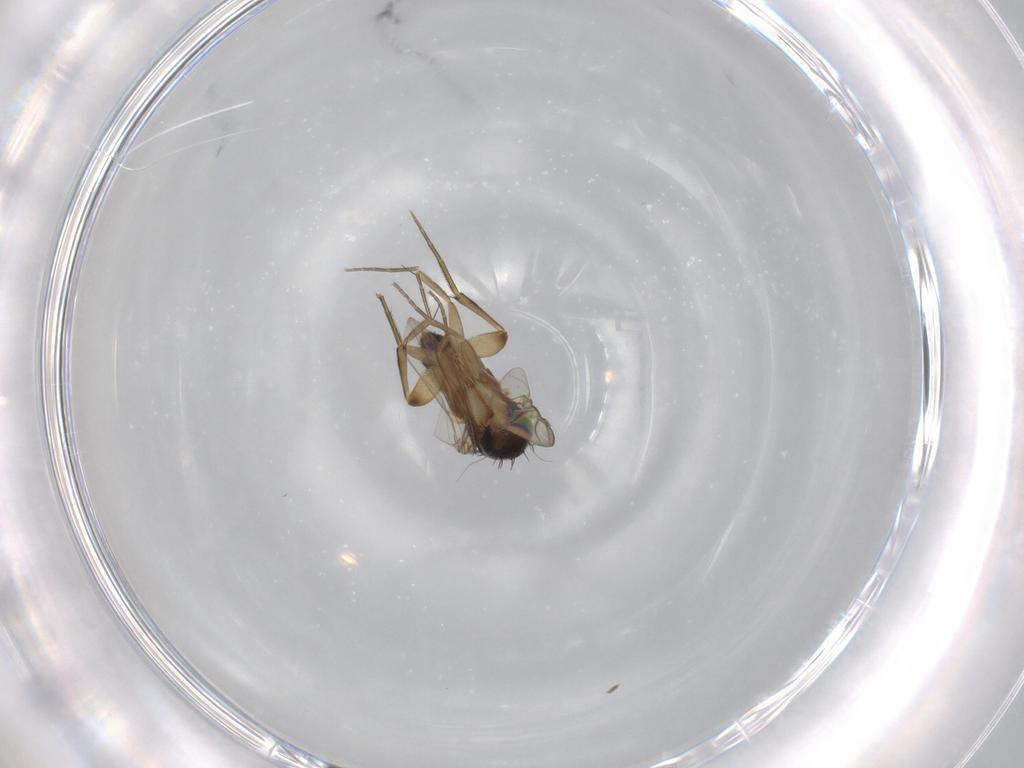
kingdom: Animalia
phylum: Arthropoda
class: Insecta
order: Diptera
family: Phoridae
